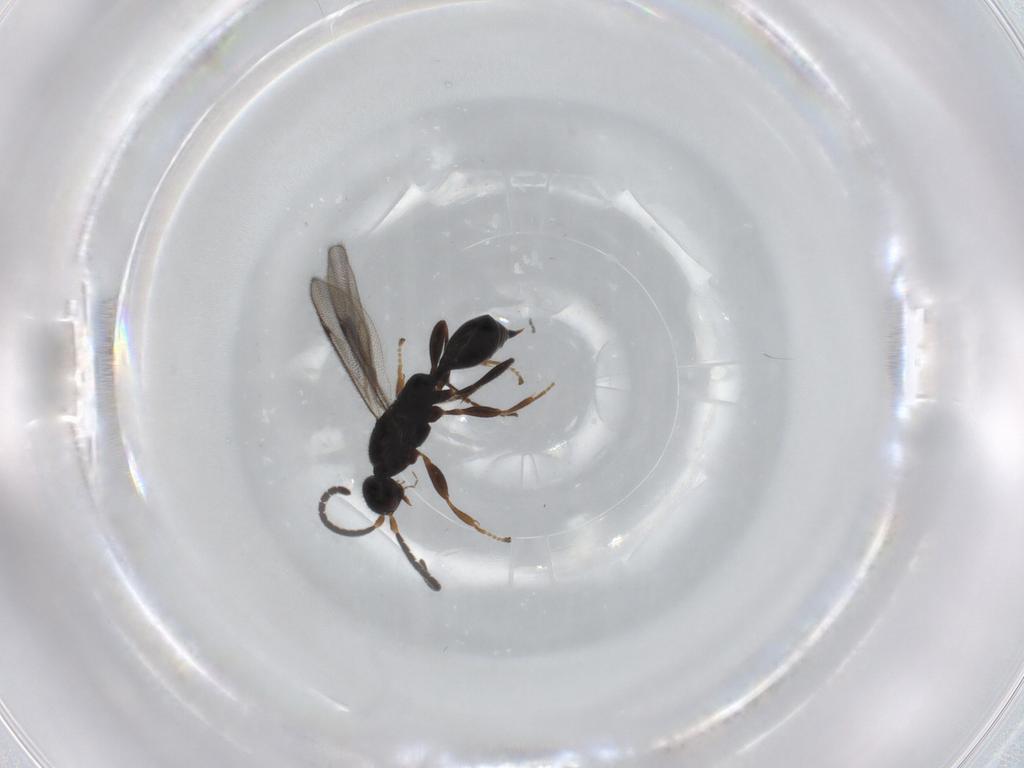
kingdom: Animalia
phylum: Arthropoda
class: Insecta
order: Hymenoptera
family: Proctotrupidae
